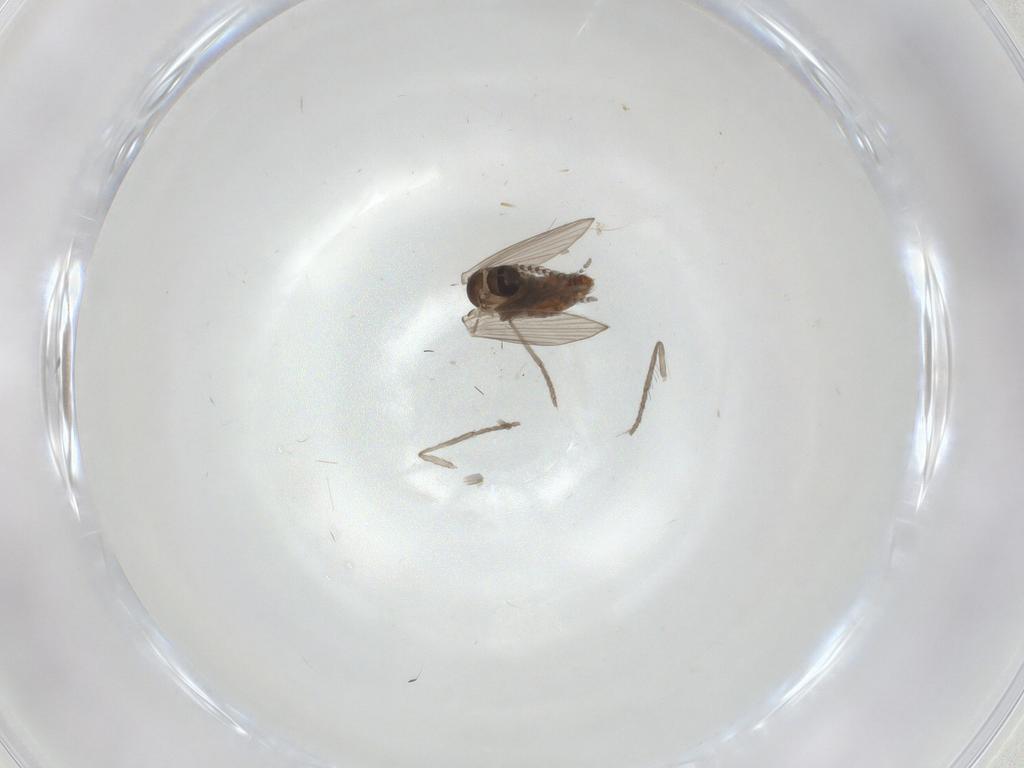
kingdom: Animalia
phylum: Arthropoda
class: Insecta
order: Diptera
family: Psychodidae
